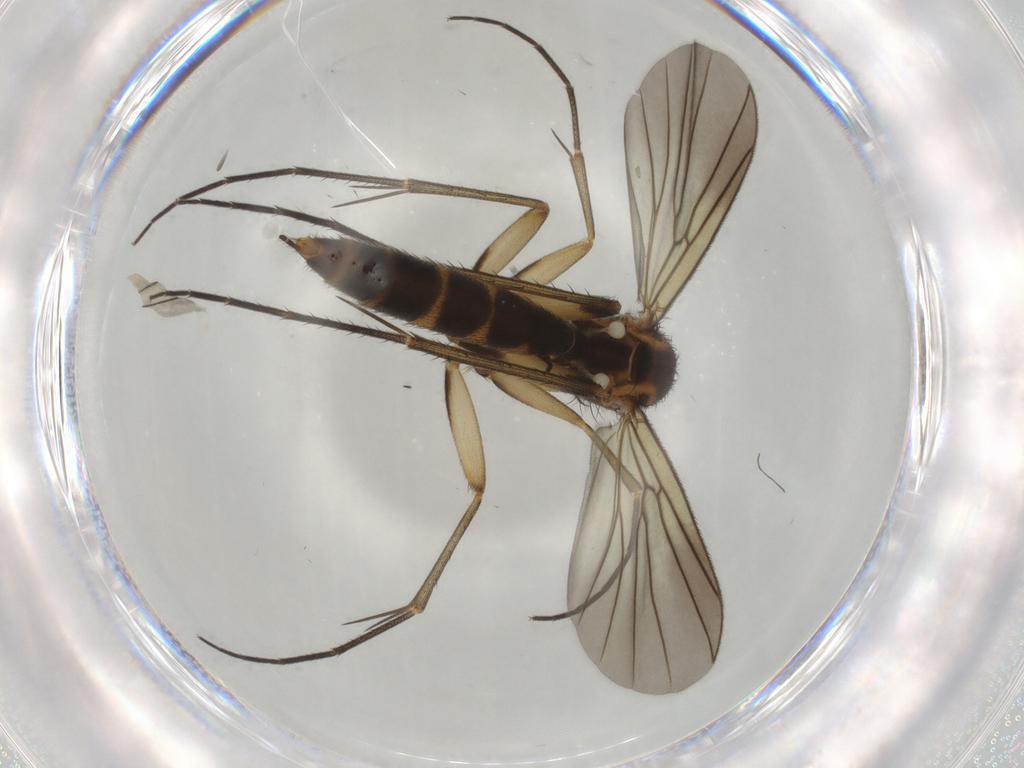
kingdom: Animalia
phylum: Arthropoda
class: Insecta
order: Diptera
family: Mycetophilidae
